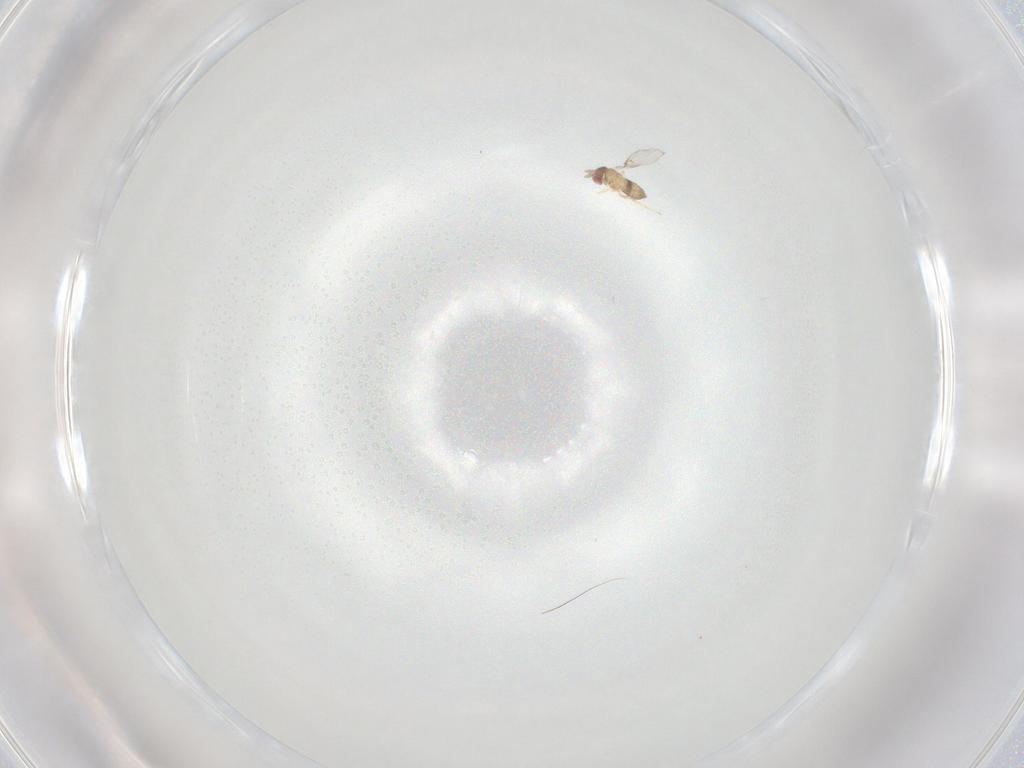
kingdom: Animalia
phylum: Arthropoda
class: Insecta
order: Hymenoptera
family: Trichogrammatidae
